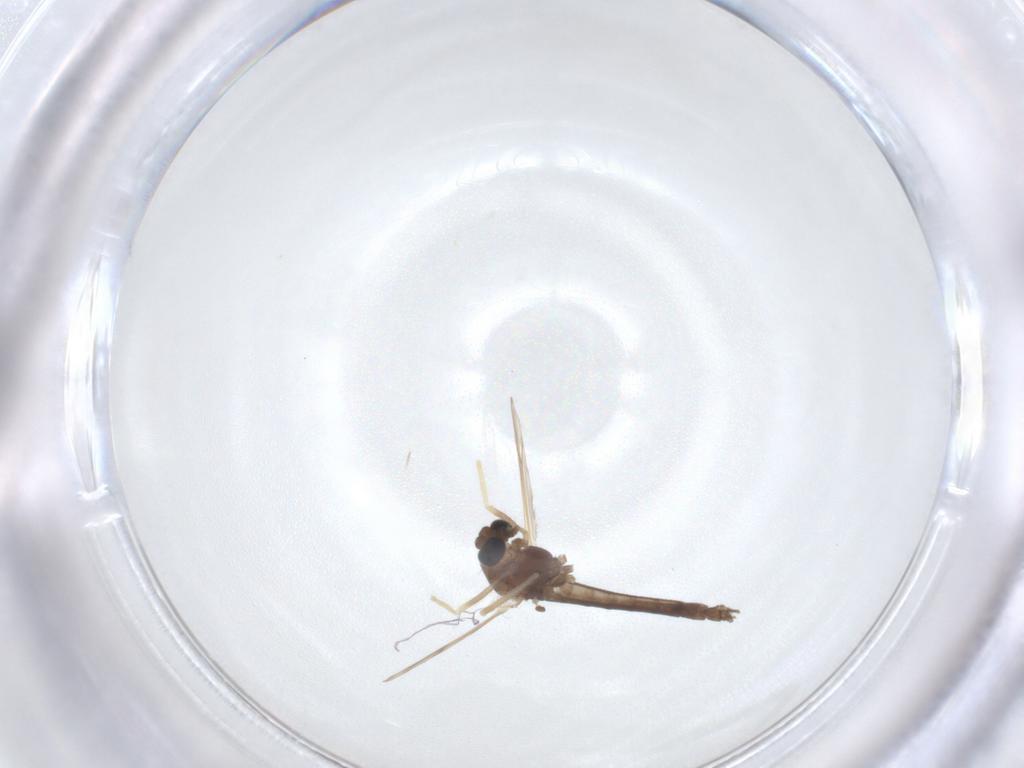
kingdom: Animalia
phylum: Arthropoda
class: Insecta
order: Diptera
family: Chironomidae
